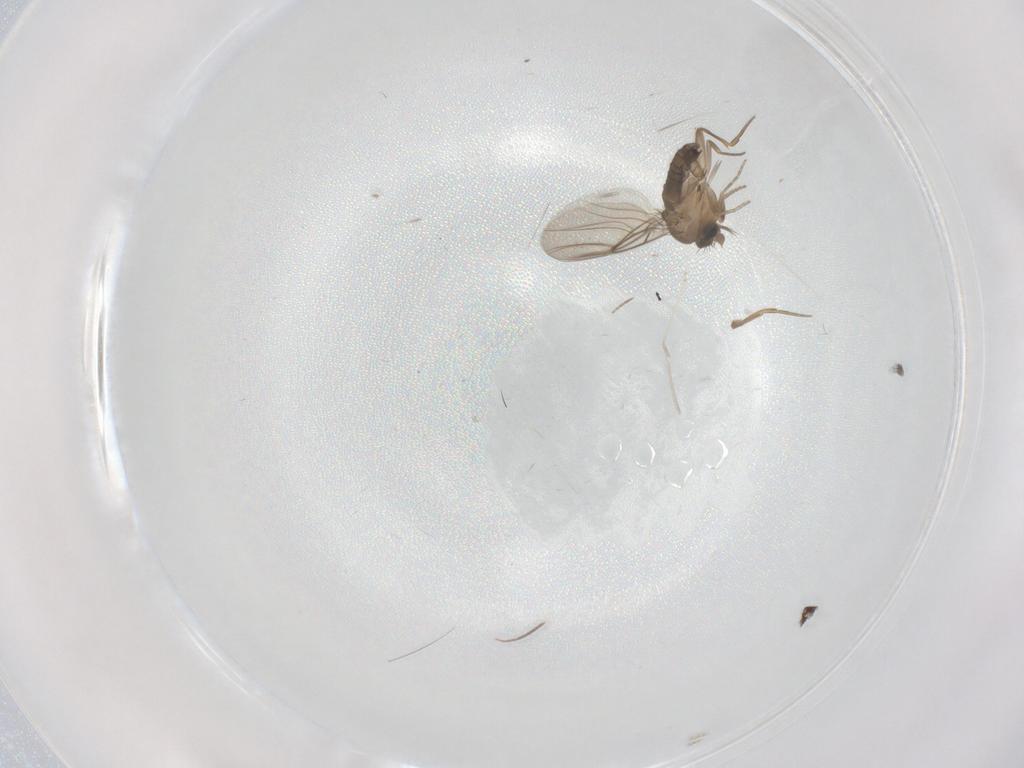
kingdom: Animalia
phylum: Arthropoda
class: Insecta
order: Diptera
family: Phoridae
